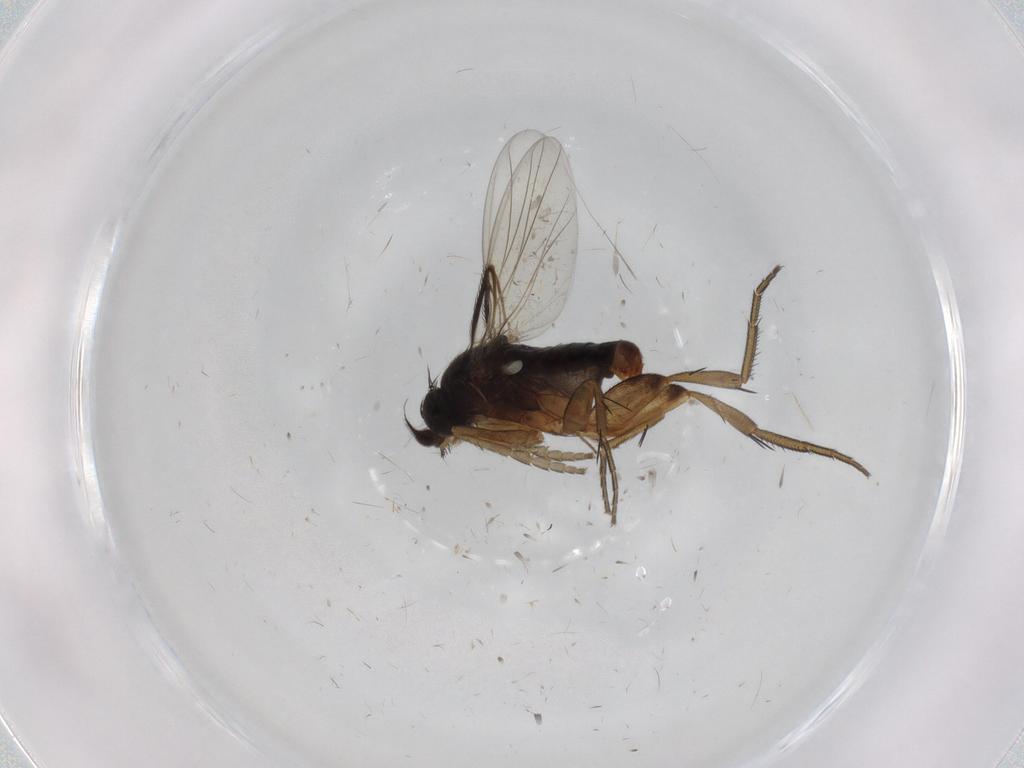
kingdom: Animalia
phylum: Arthropoda
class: Insecta
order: Diptera
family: Phoridae
